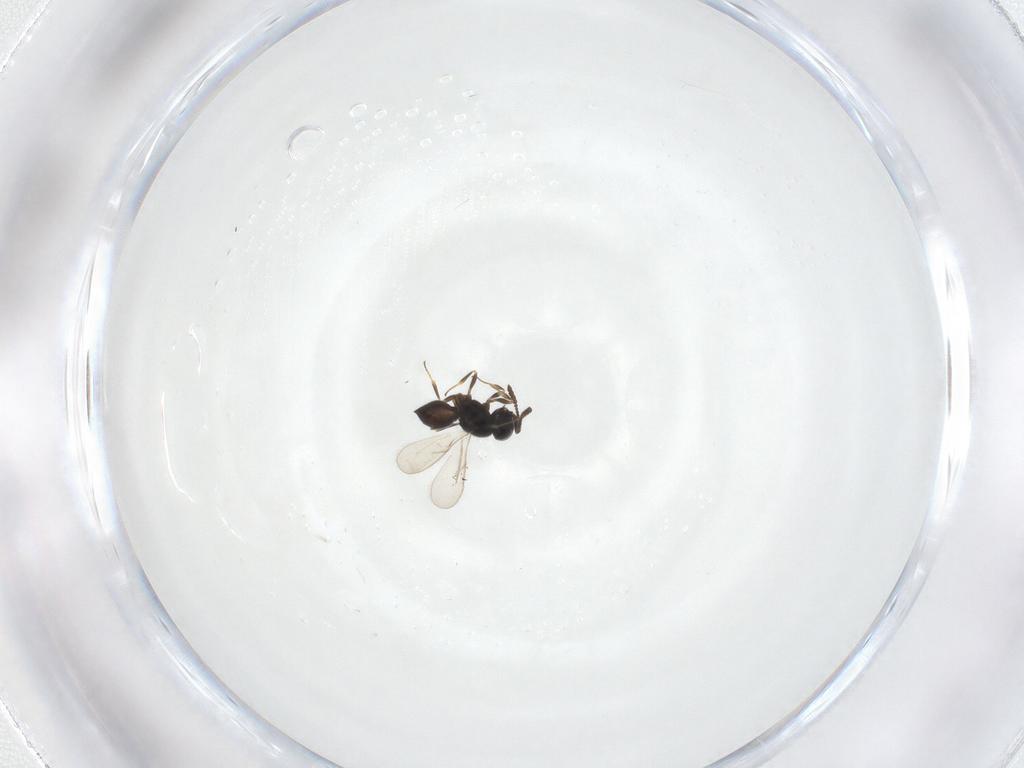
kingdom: Animalia
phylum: Arthropoda
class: Insecta
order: Hymenoptera
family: Scelionidae
